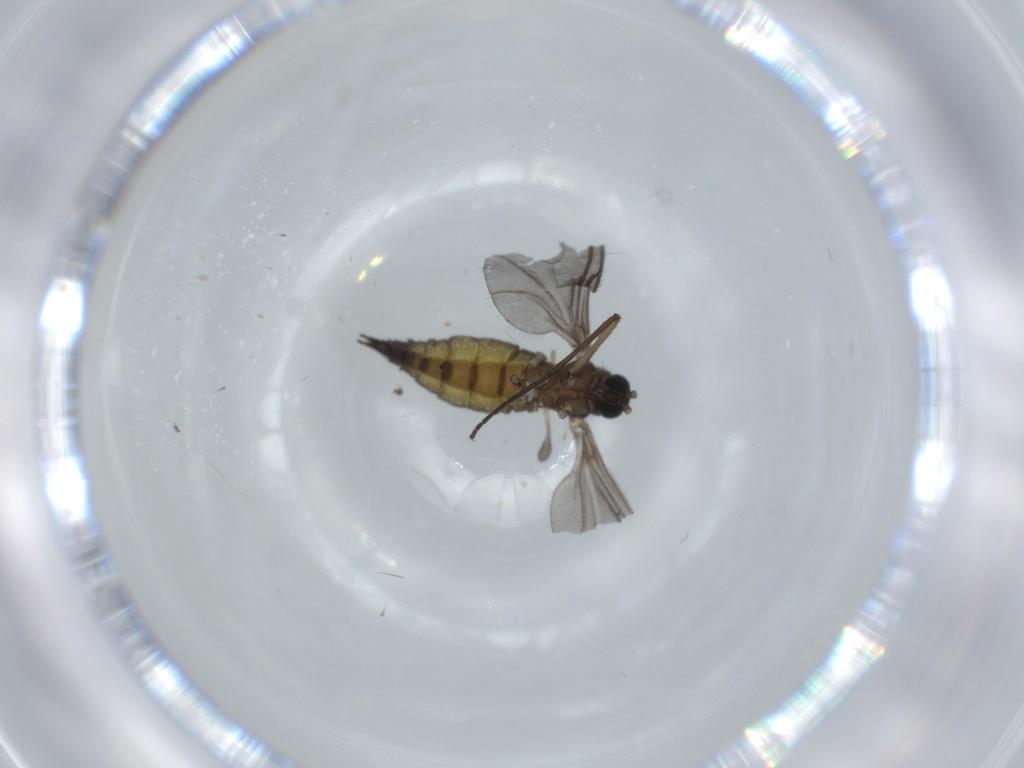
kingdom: Animalia
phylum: Arthropoda
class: Insecta
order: Diptera
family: Sciaridae
